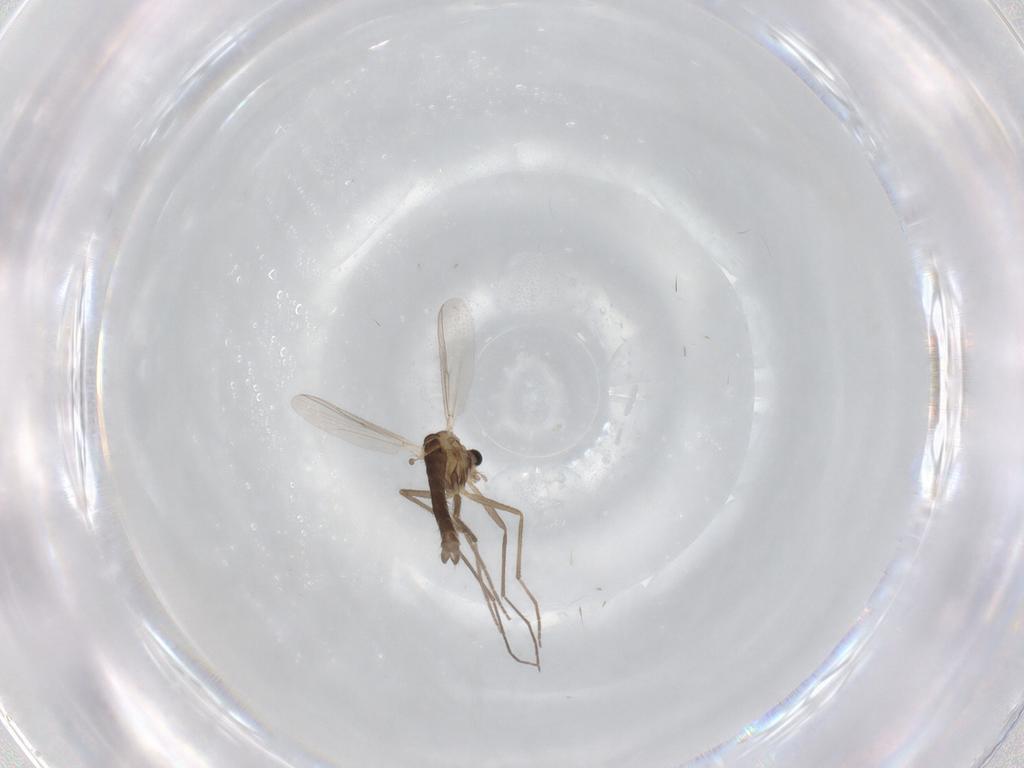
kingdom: Animalia
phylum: Arthropoda
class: Insecta
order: Diptera
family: Chironomidae
